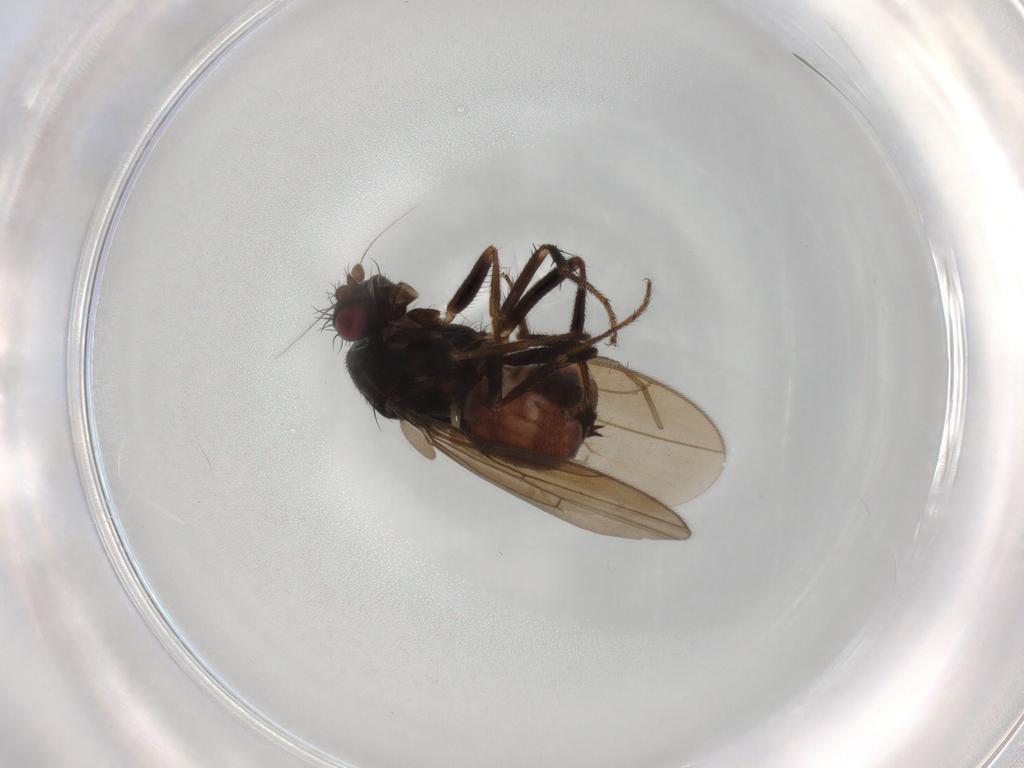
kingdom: Animalia
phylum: Arthropoda
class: Insecta
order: Diptera
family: Sphaeroceridae
